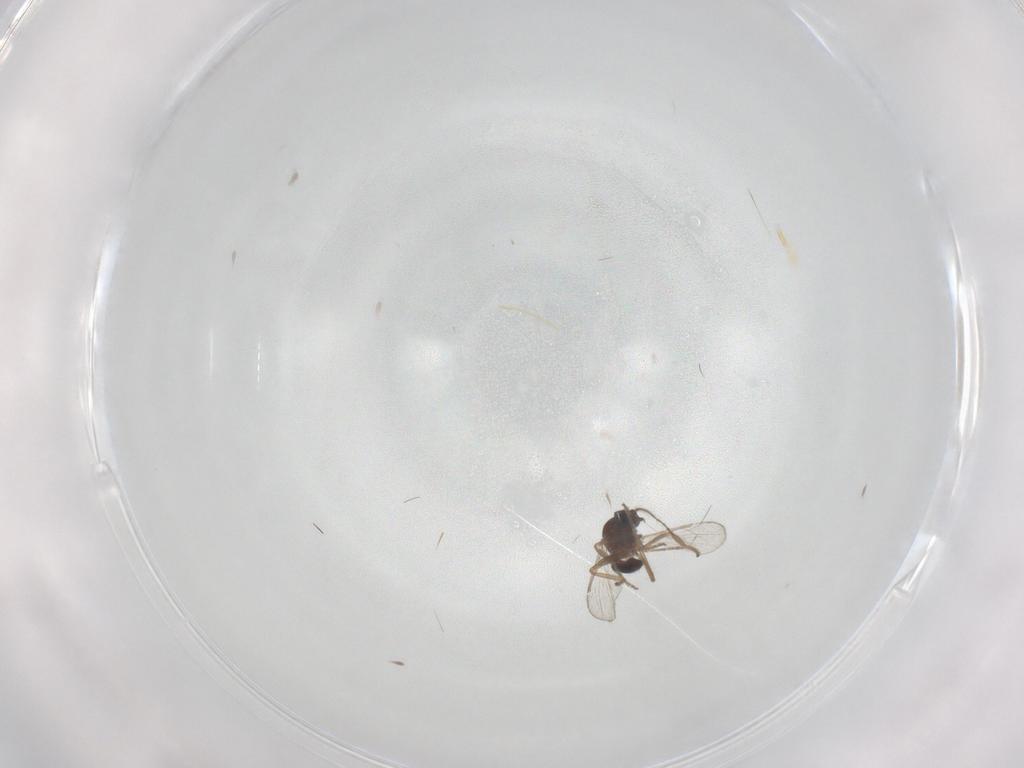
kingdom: Animalia
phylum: Arthropoda
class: Insecta
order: Diptera
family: Ceratopogonidae
